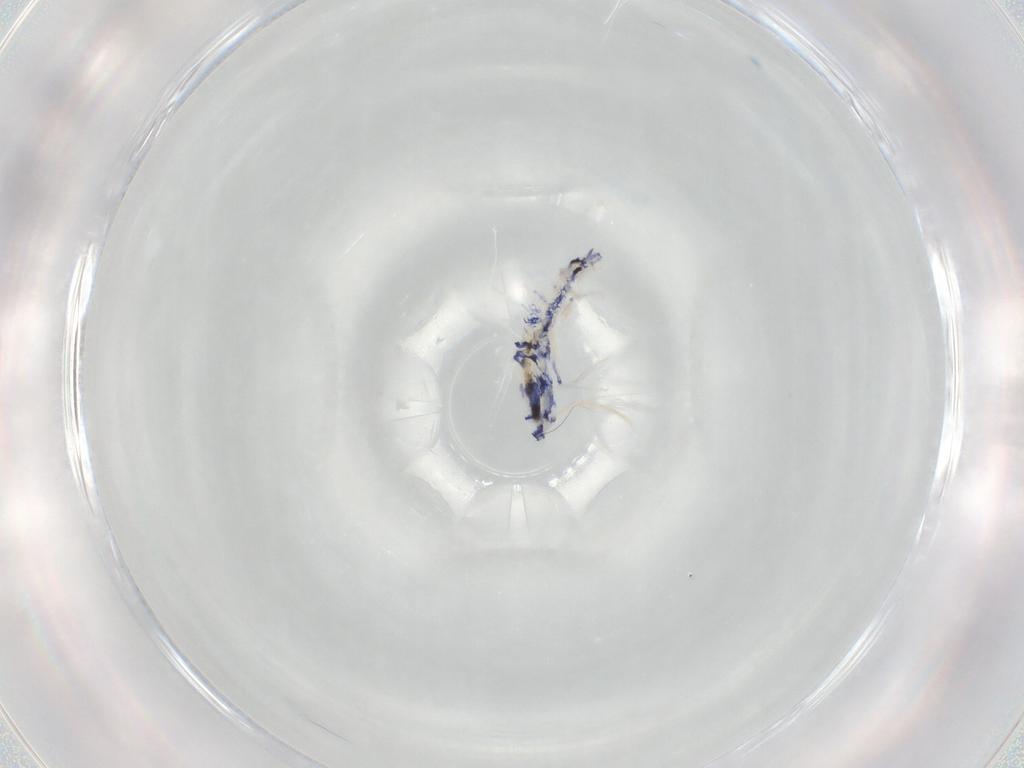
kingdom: Animalia
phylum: Arthropoda
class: Collembola
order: Entomobryomorpha
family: Entomobryidae
